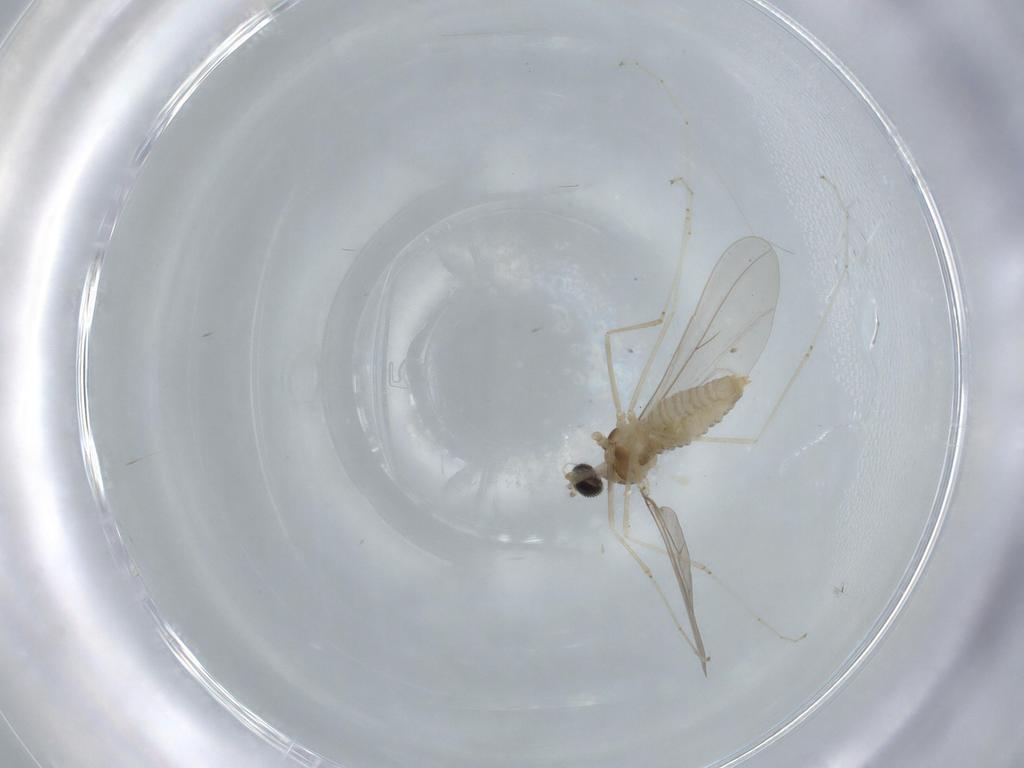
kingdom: Animalia
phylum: Arthropoda
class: Insecta
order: Diptera
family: Cecidomyiidae
